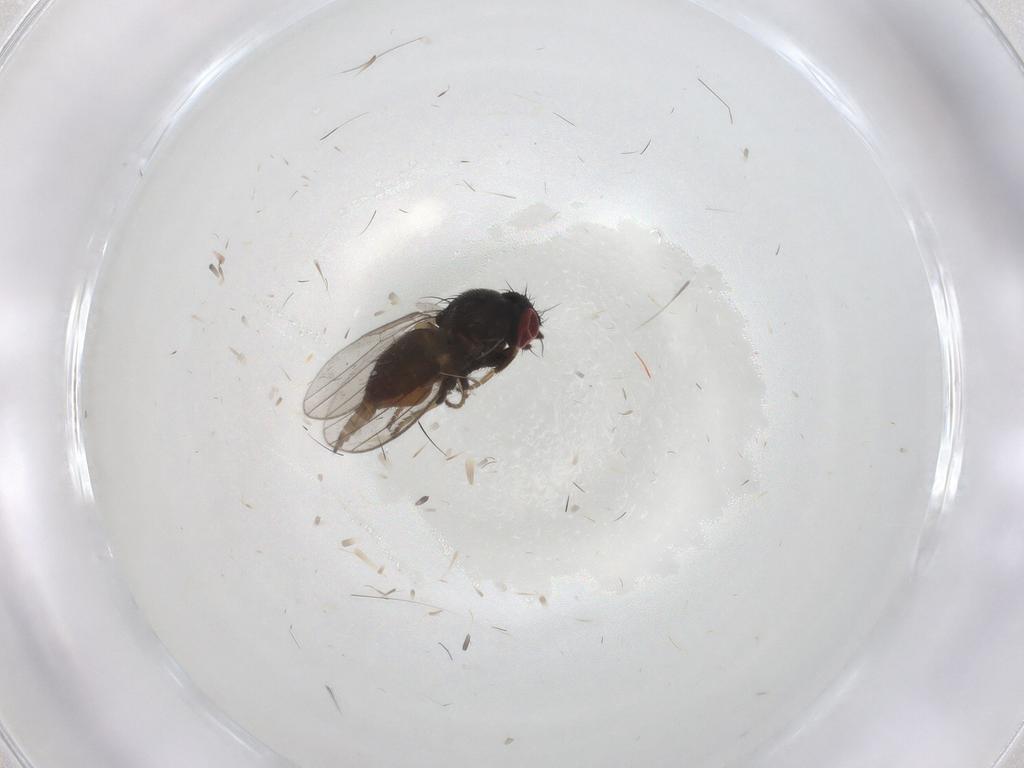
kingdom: Animalia
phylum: Arthropoda
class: Insecta
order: Diptera
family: Milichiidae
